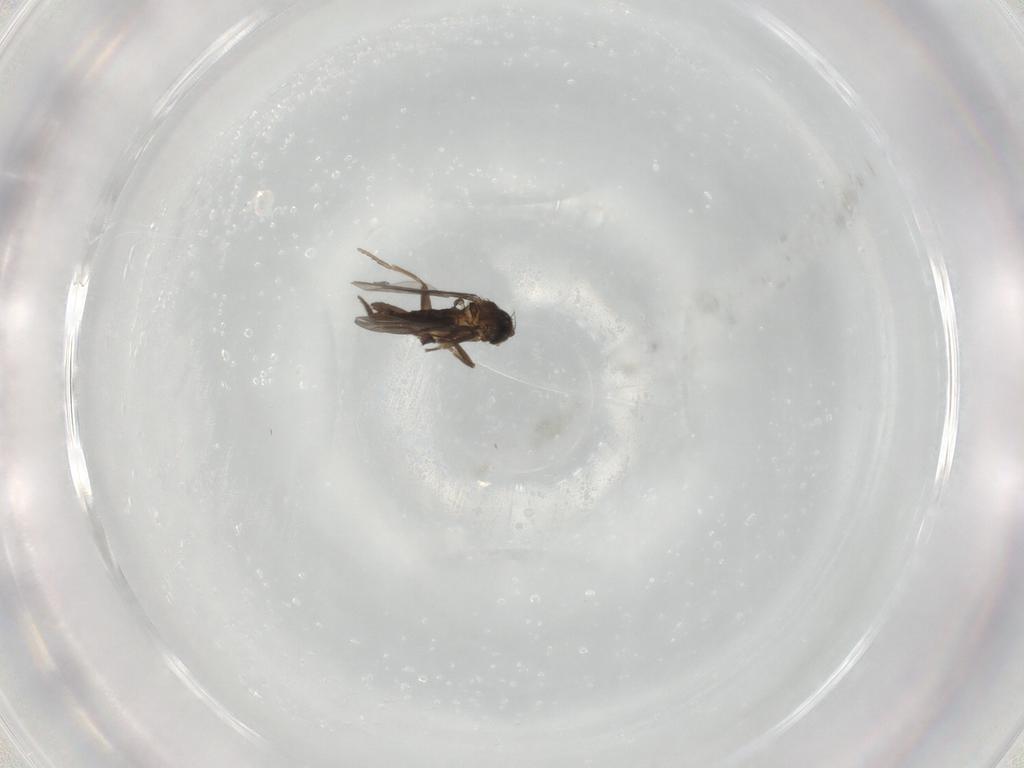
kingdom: Animalia
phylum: Arthropoda
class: Insecta
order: Diptera
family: Phoridae
